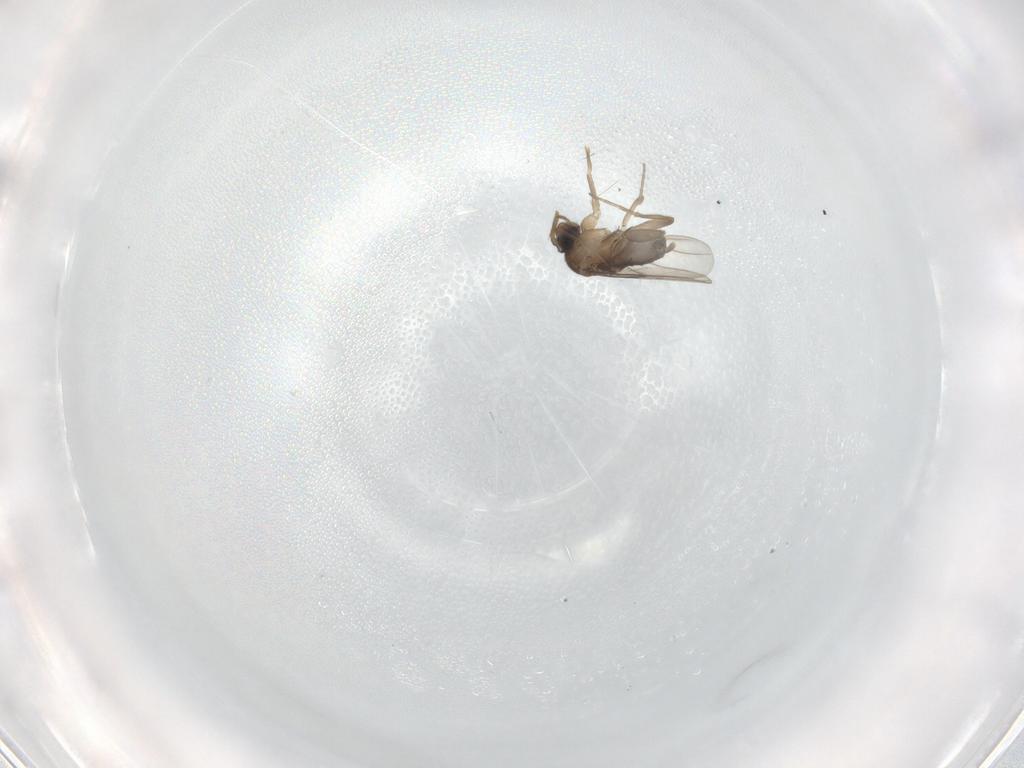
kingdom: Animalia
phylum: Arthropoda
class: Insecta
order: Diptera
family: Phoridae
